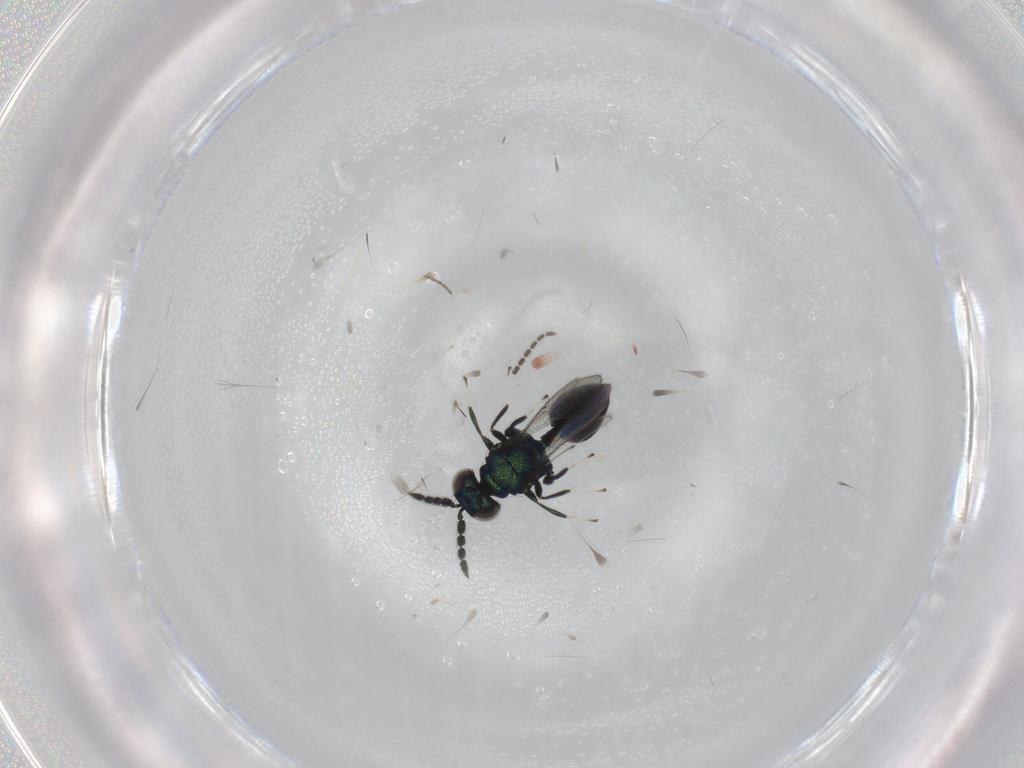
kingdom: Animalia
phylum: Arthropoda
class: Insecta
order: Hymenoptera
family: Eulophidae
